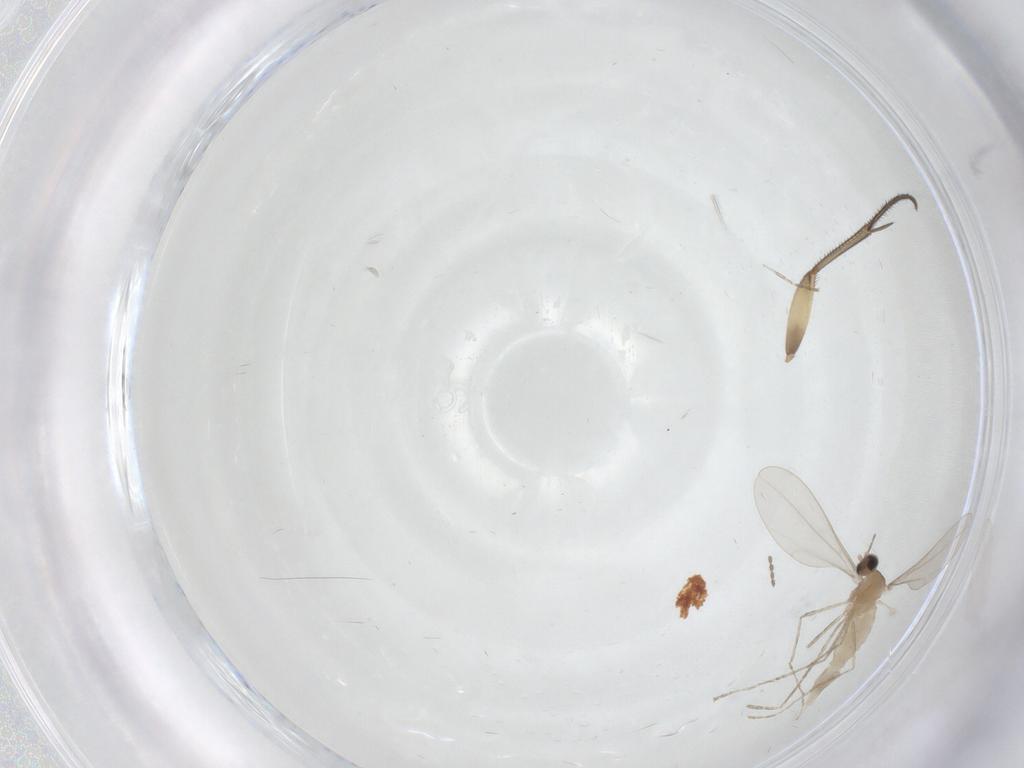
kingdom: Animalia
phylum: Arthropoda
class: Insecta
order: Diptera
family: Mycetophilidae
